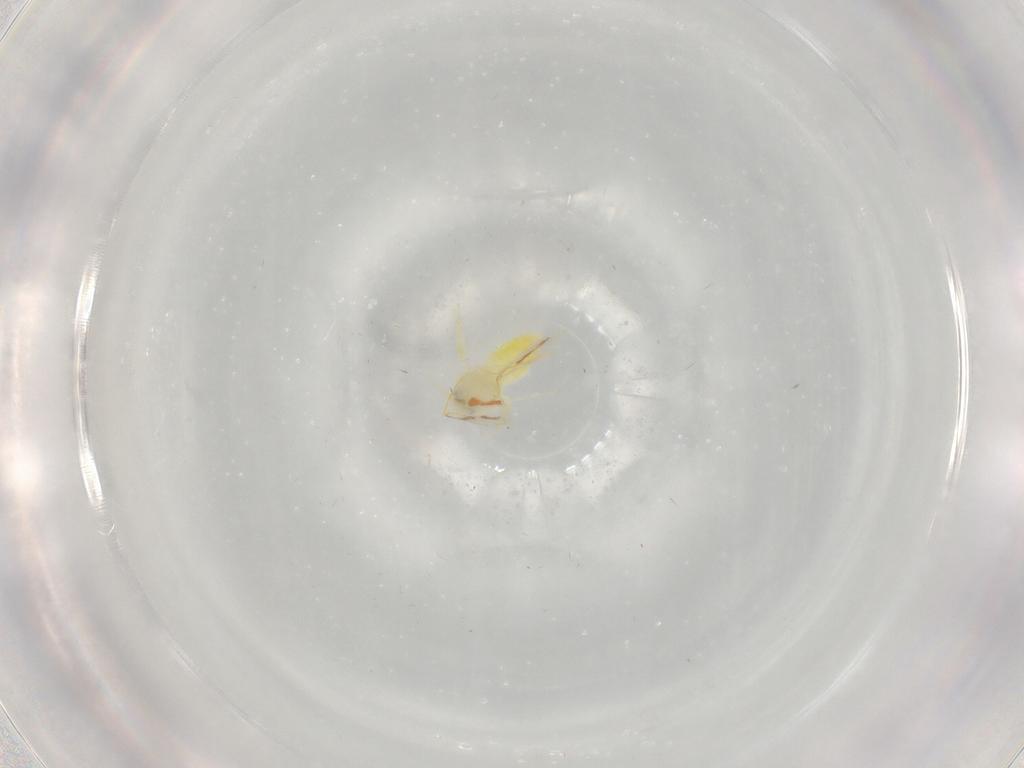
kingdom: Animalia
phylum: Arthropoda
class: Insecta
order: Hemiptera
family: Aleyrodidae
